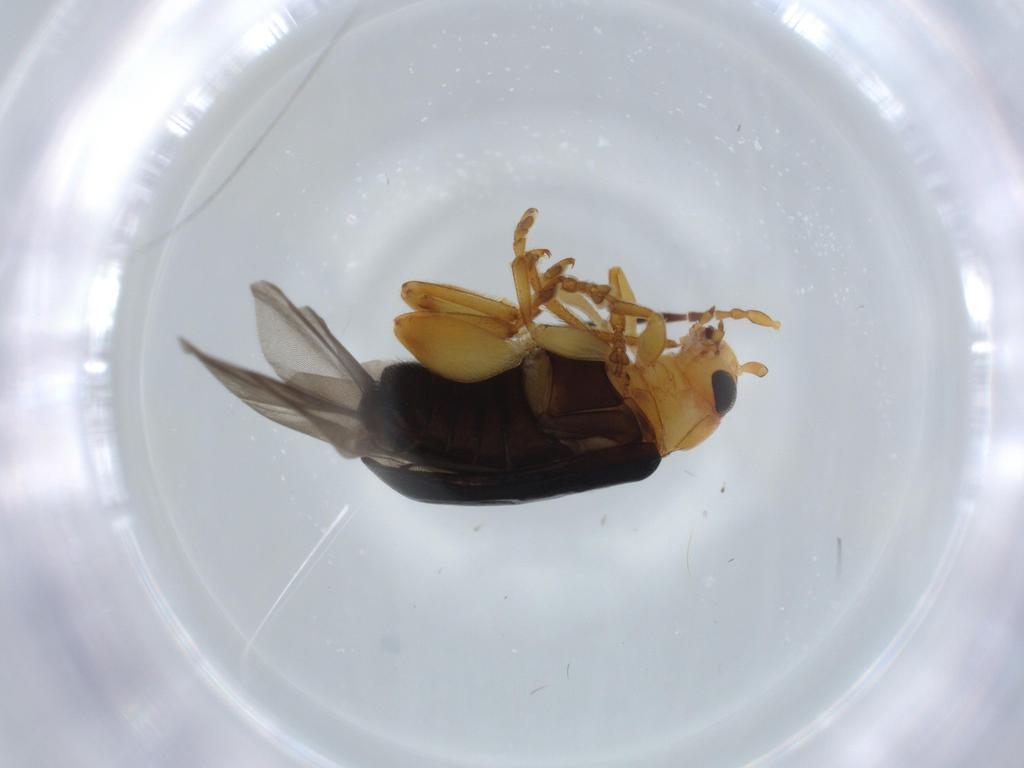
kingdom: Animalia
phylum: Arthropoda
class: Insecta
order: Coleoptera
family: Chrysomelidae
